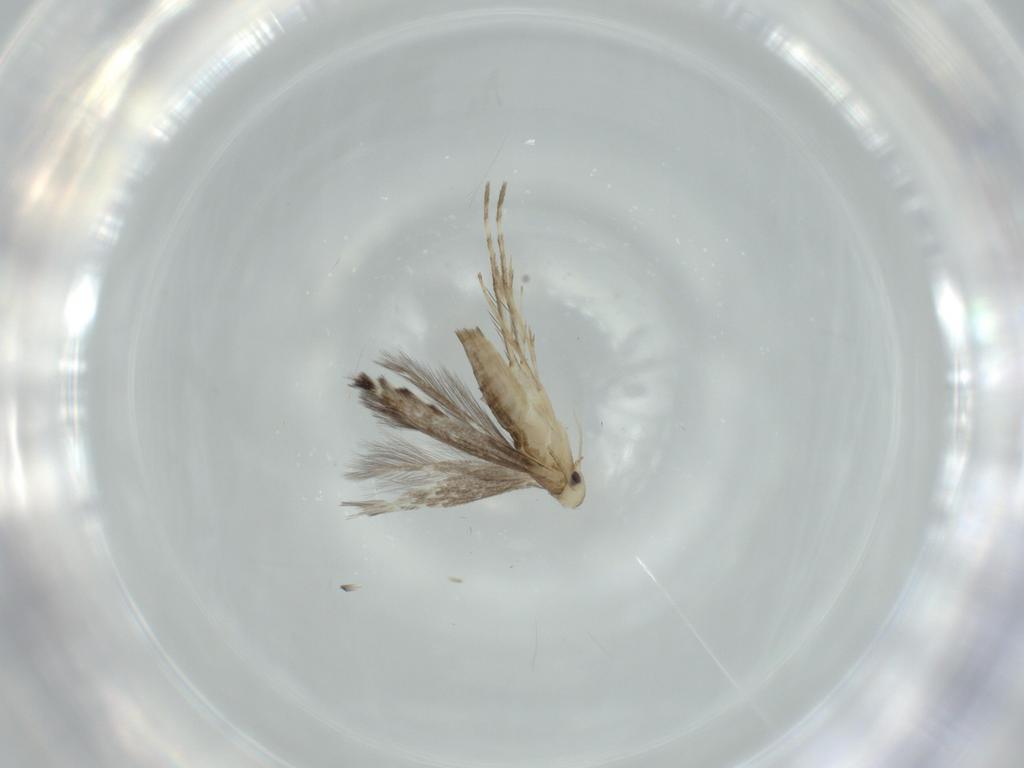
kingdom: Animalia
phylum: Arthropoda
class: Insecta
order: Lepidoptera
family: Gracillariidae
